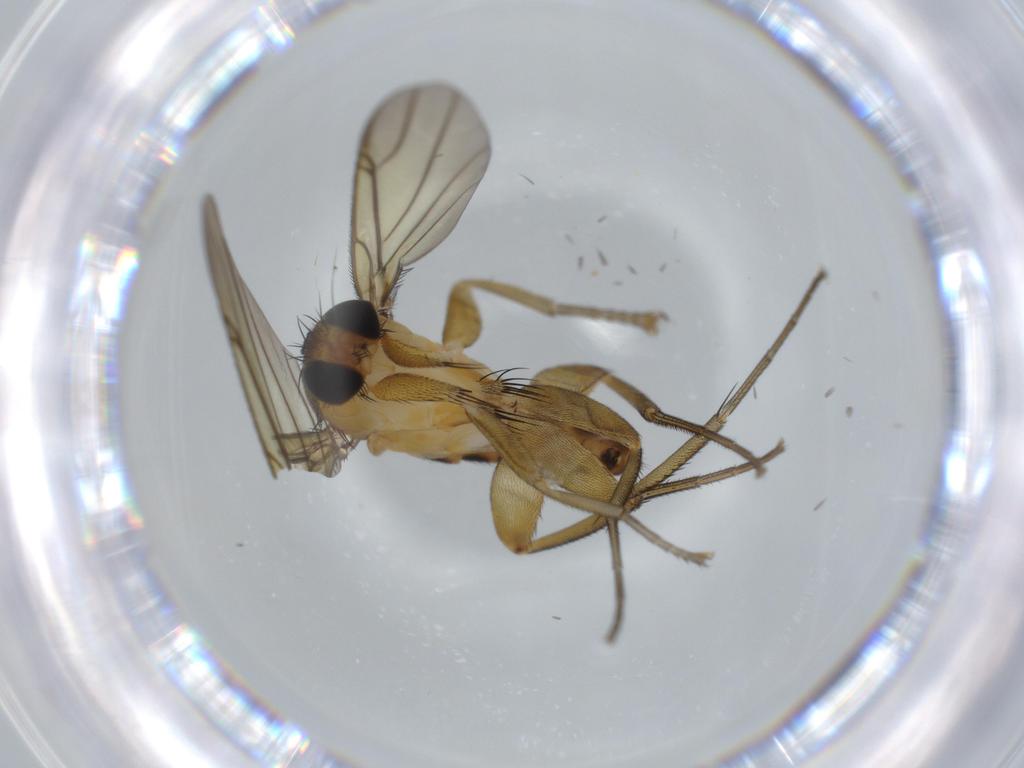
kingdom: Animalia
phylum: Arthropoda
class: Insecta
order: Diptera
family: Phoridae
